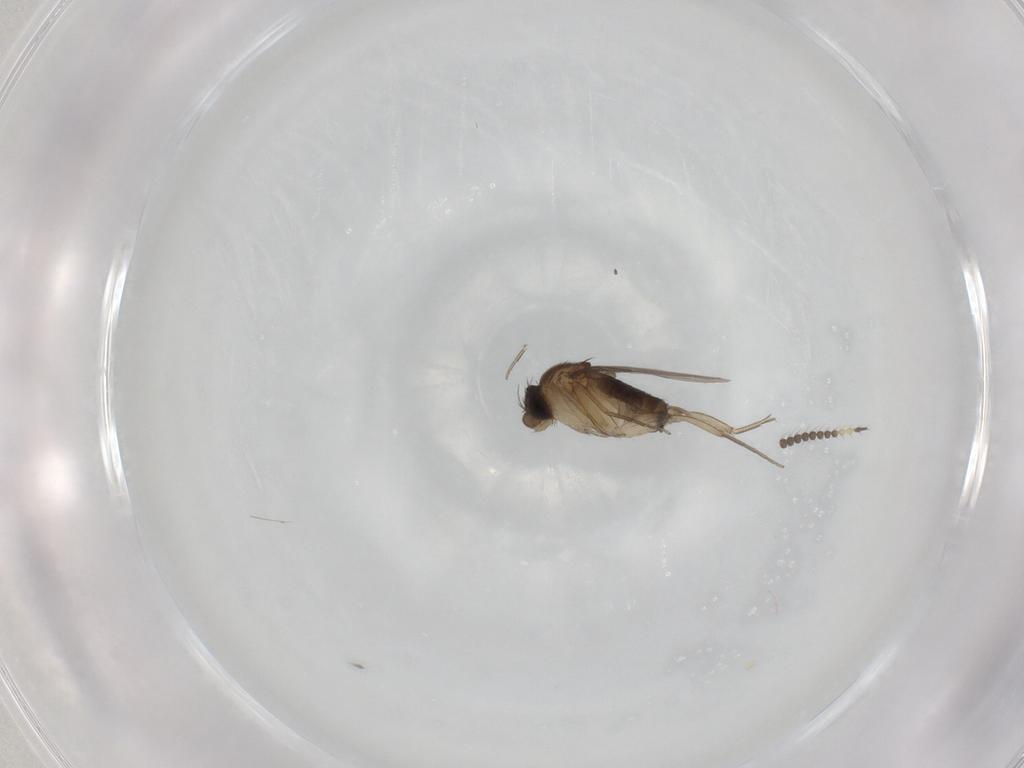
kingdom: Animalia
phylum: Arthropoda
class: Insecta
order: Diptera
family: Phoridae
